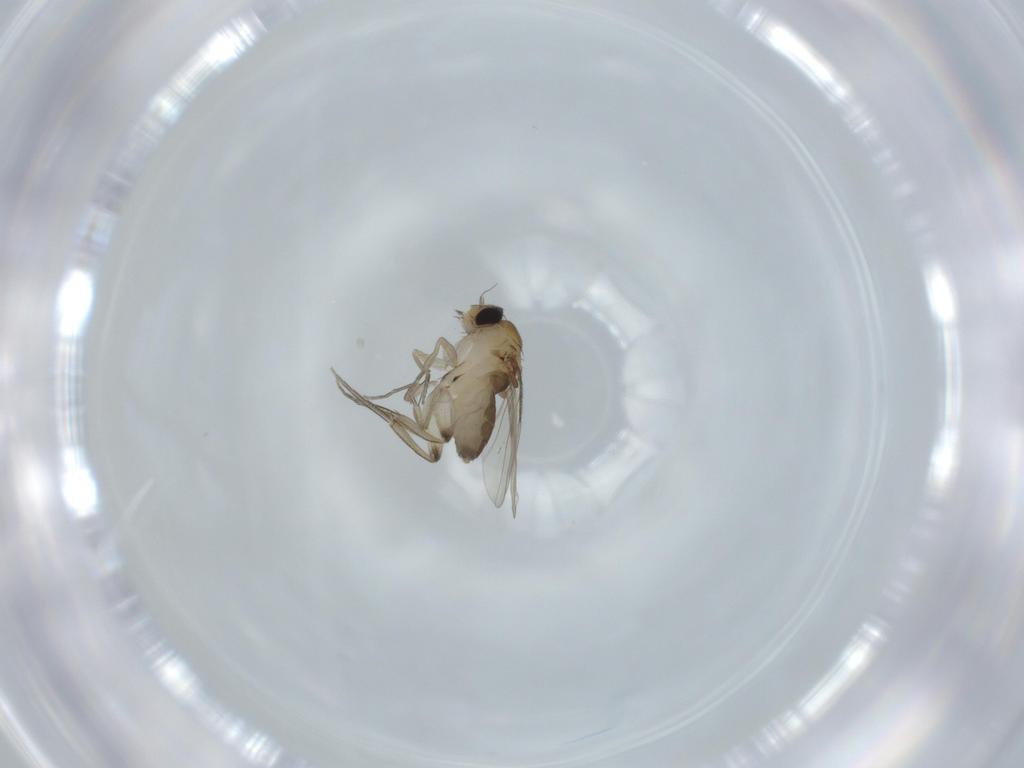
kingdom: Animalia
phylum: Arthropoda
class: Insecta
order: Diptera
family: Phoridae
